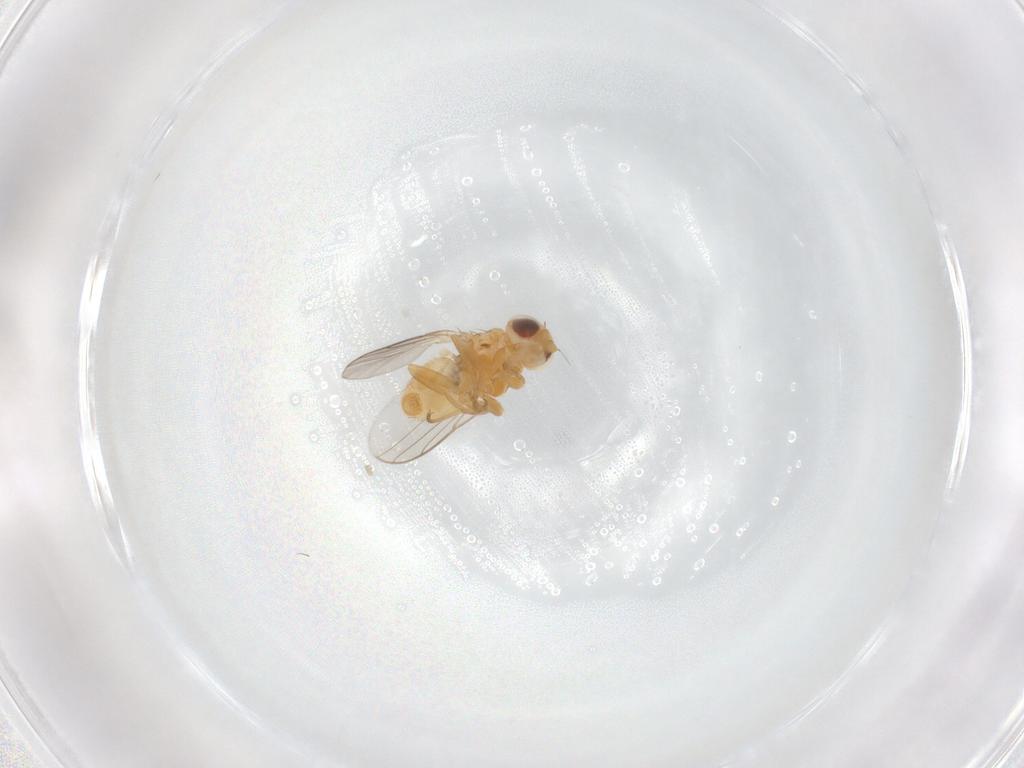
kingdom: Animalia
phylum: Arthropoda
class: Insecta
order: Diptera
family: Chloropidae
